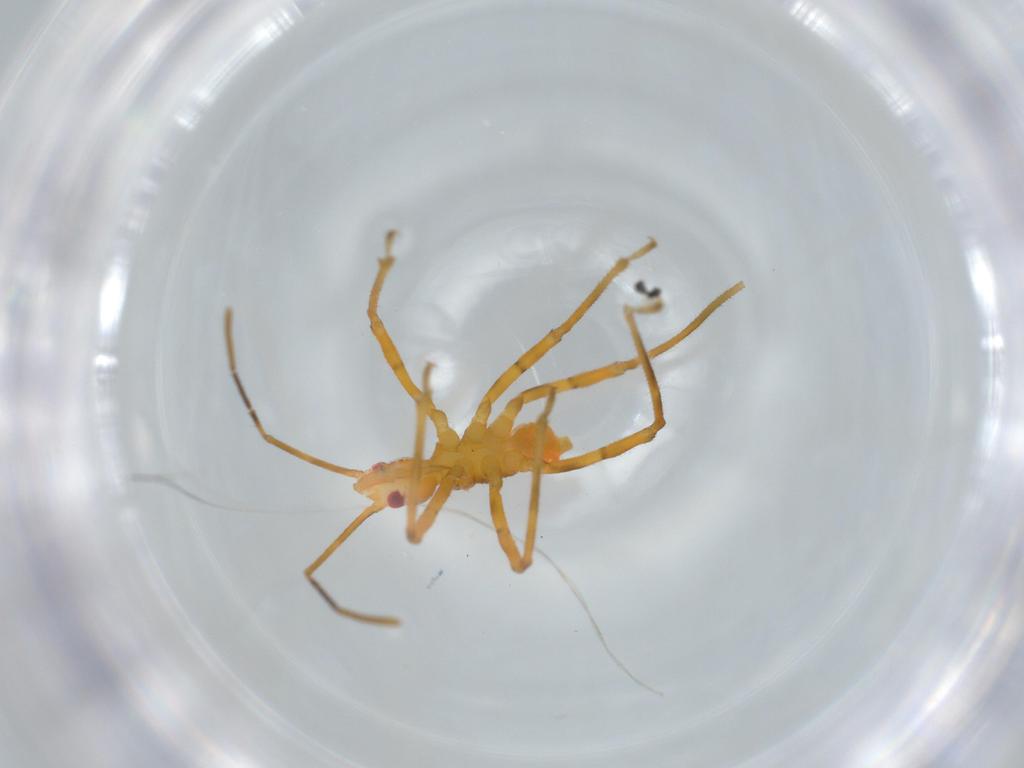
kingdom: Animalia
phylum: Arthropoda
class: Insecta
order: Hemiptera
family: Reduviidae
